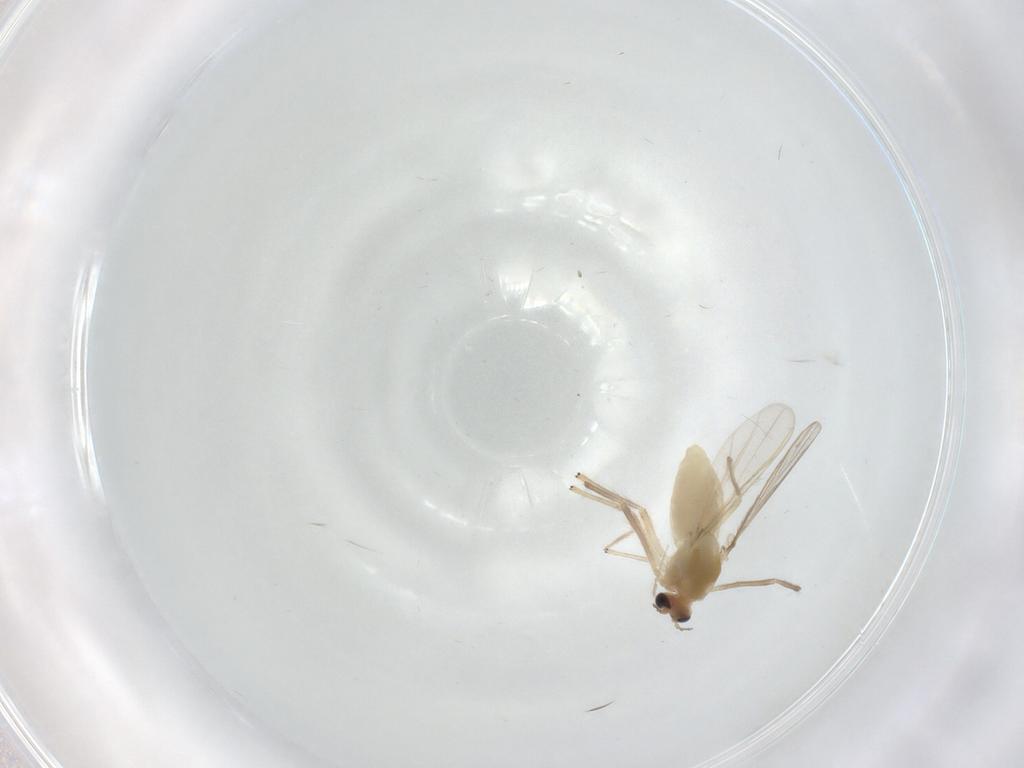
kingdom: Animalia
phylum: Arthropoda
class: Insecta
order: Diptera
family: Chironomidae
